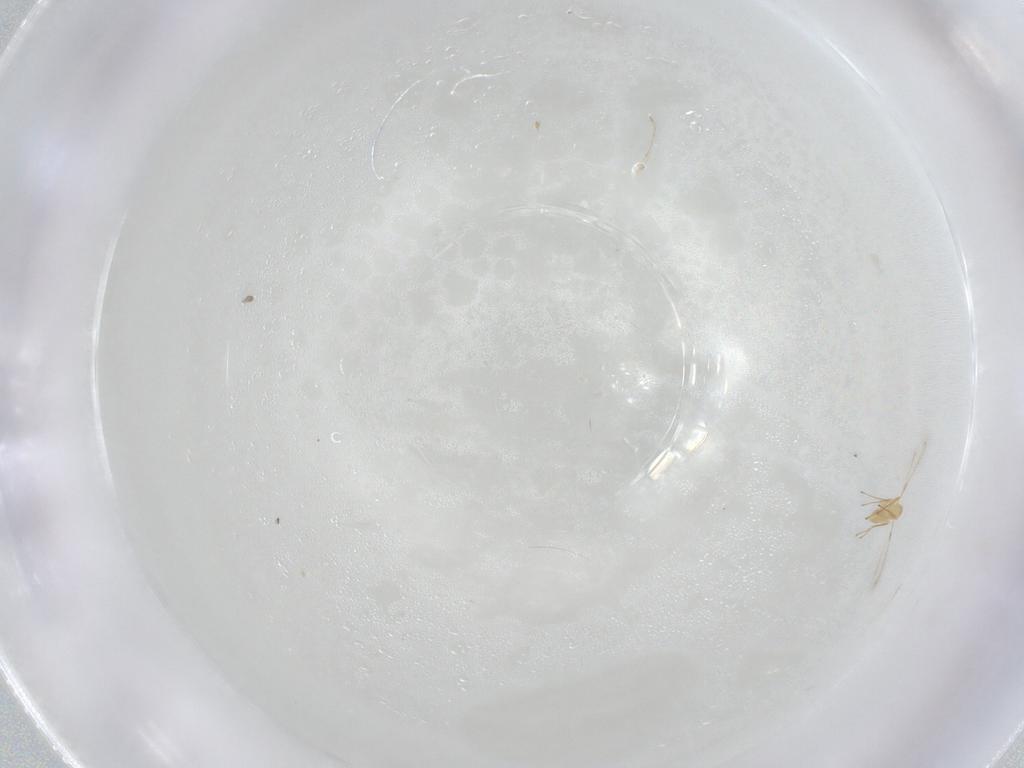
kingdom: Animalia
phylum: Arthropoda
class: Insecta
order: Hymenoptera
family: Mymaridae
